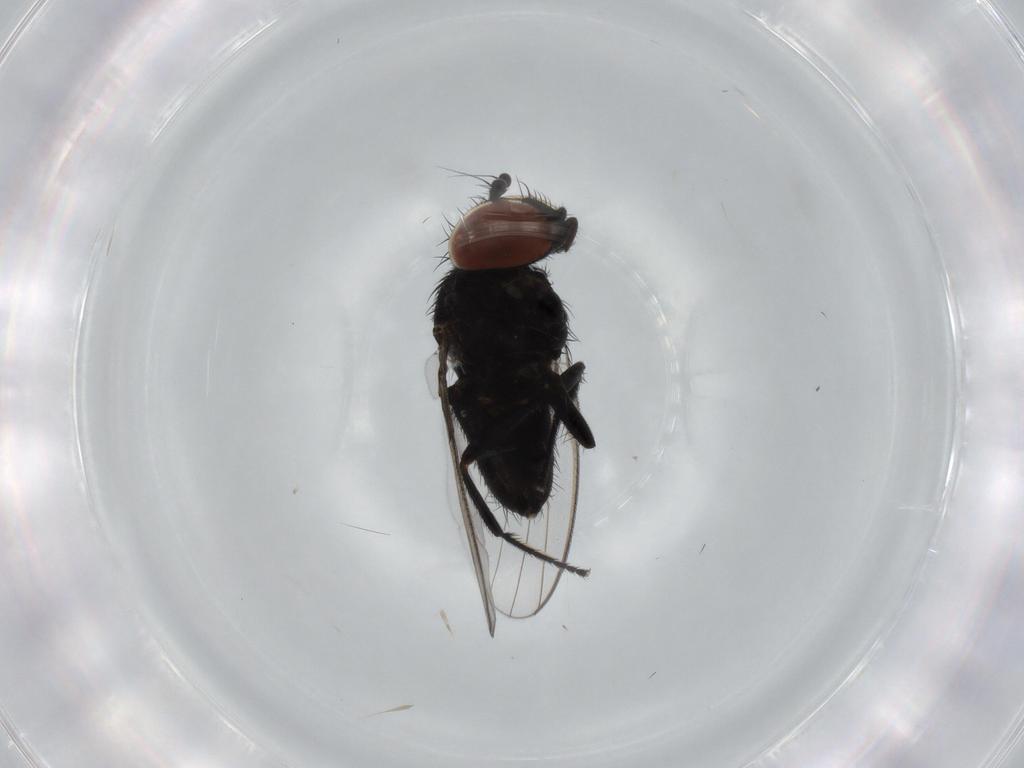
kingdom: Animalia
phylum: Arthropoda
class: Insecta
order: Diptera
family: Milichiidae
